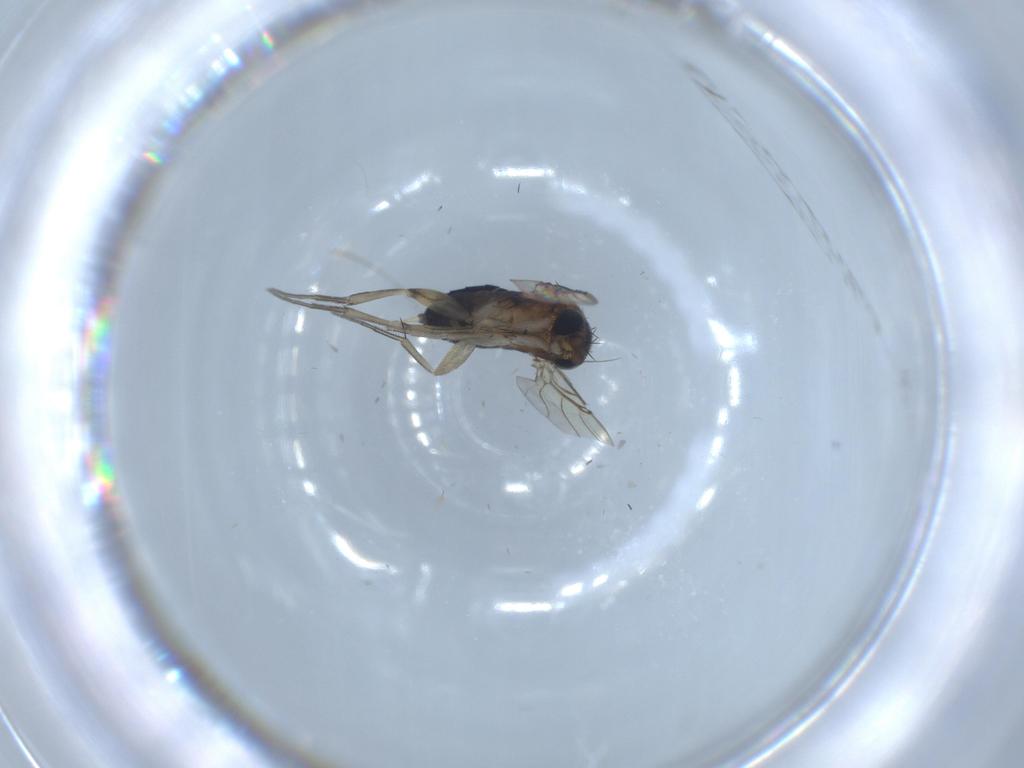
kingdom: Animalia
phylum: Arthropoda
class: Insecta
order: Diptera
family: Phoridae
